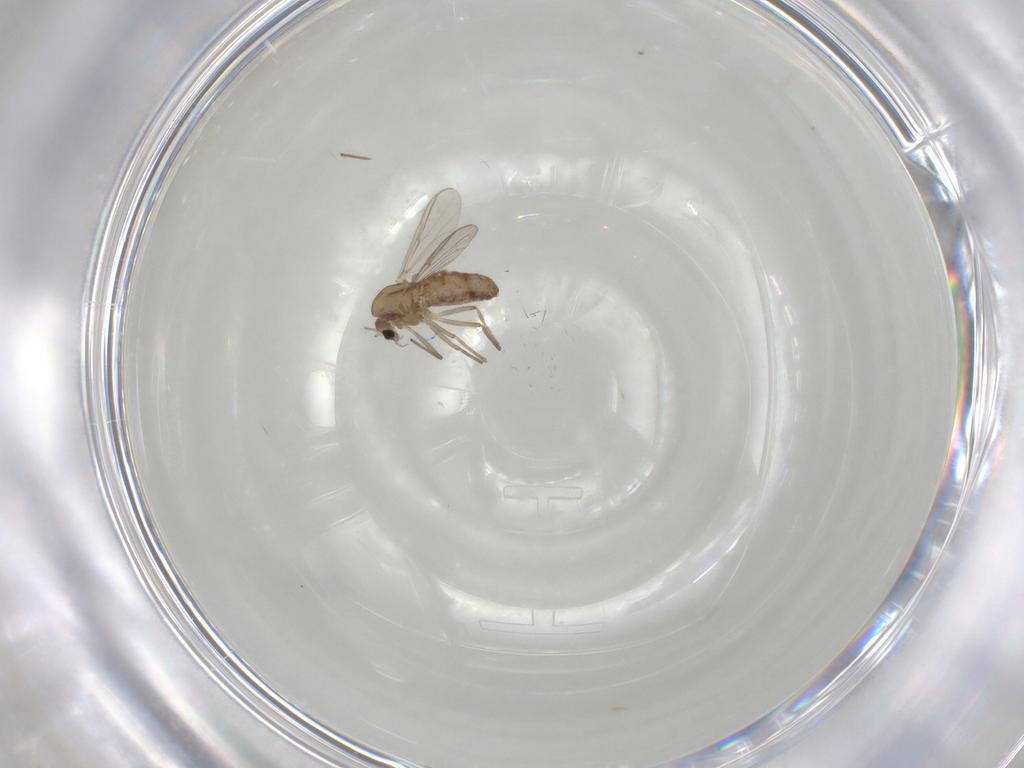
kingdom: Animalia
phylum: Arthropoda
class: Insecta
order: Diptera
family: Chironomidae
